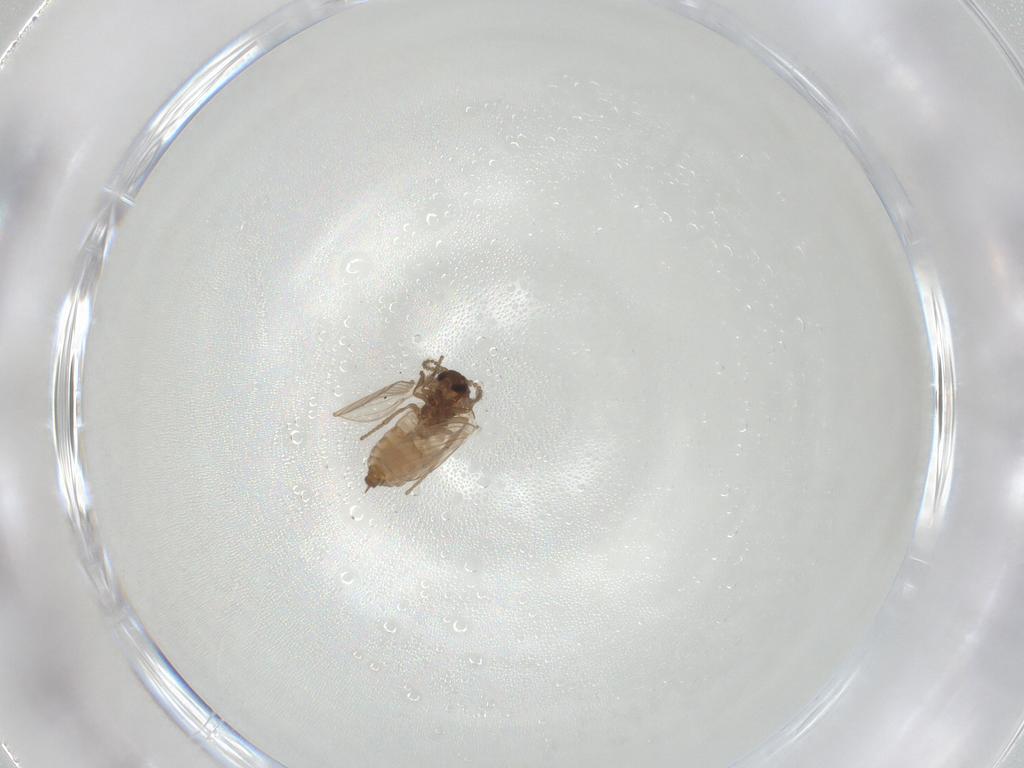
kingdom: Animalia
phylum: Arthropoda
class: Insecta
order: Diptera
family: Psychodidae
